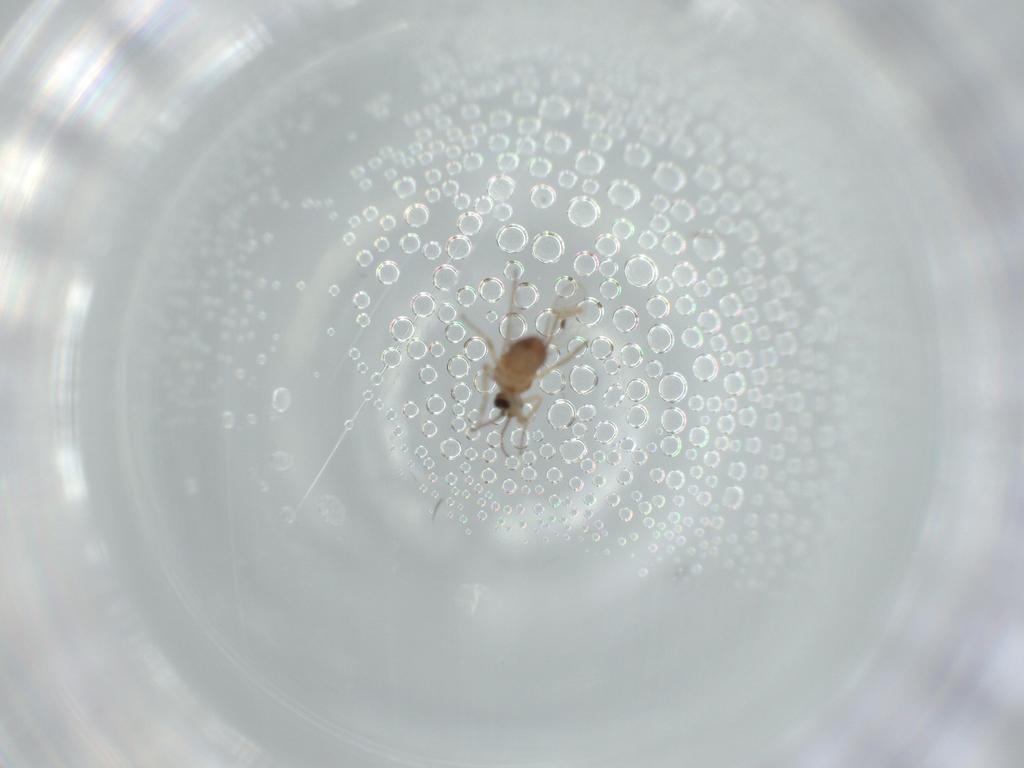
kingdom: Animalia
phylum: Arthropoda
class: Insecta
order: Diptera
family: Ceratopogonidae
